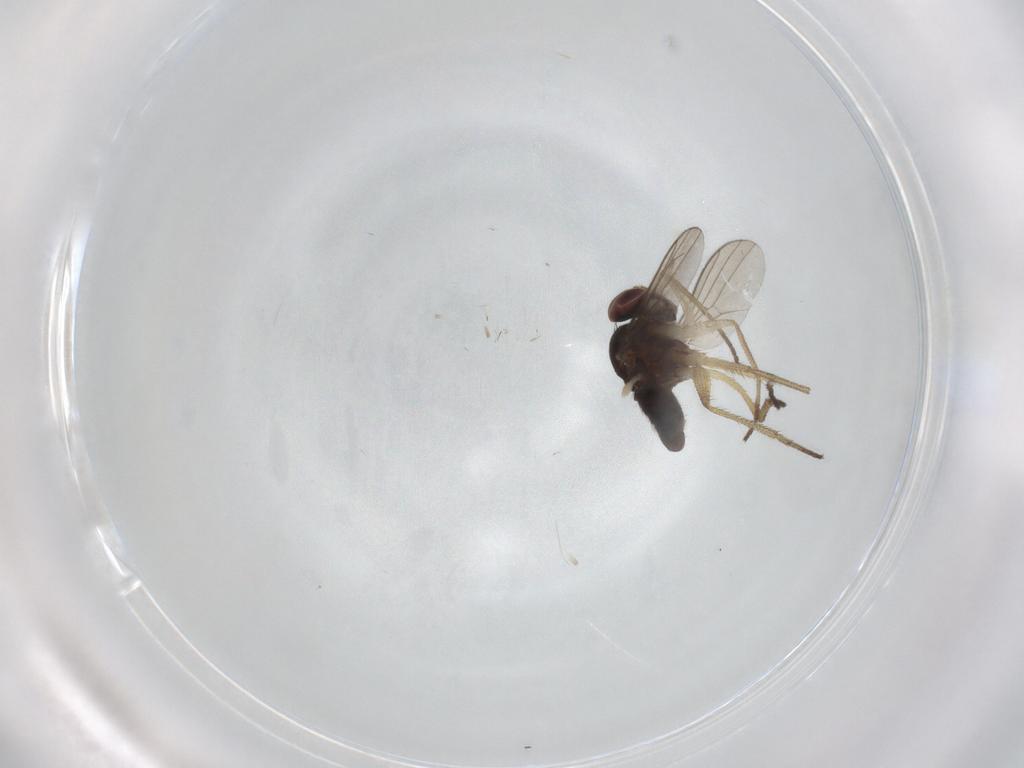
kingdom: Animalia
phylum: Arthropoda
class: Insecta
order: Diptera
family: Dolichopodidae
